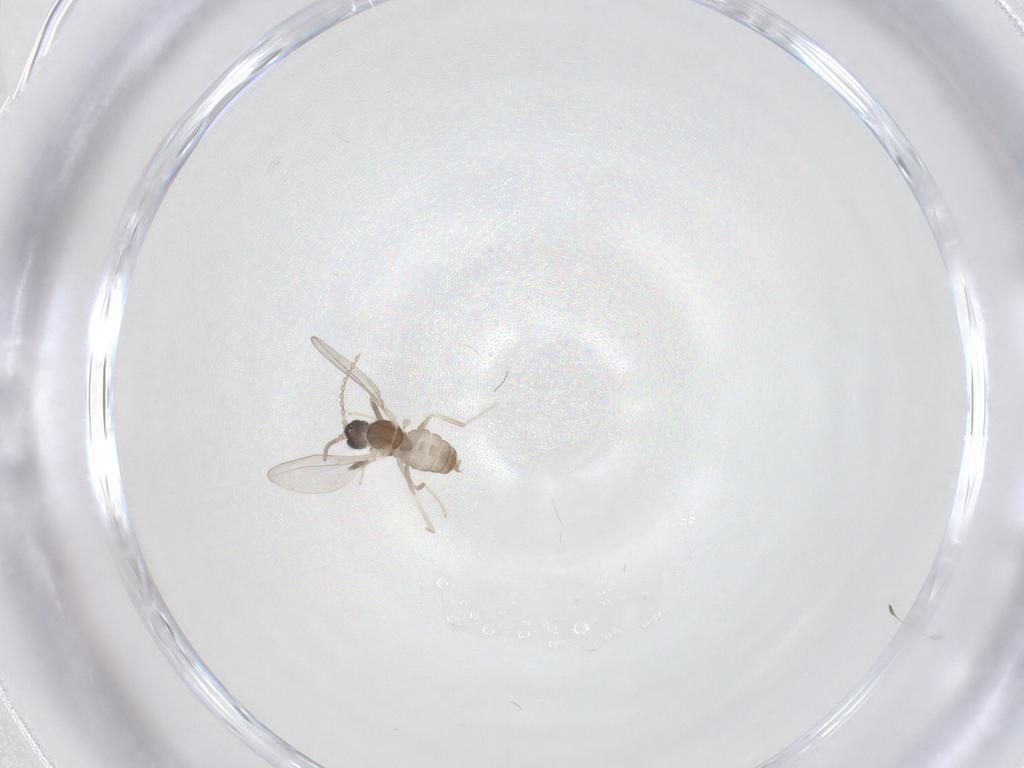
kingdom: Animalia
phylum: Arthropoda
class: Insecta
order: Diptera
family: Cecidomyiidae
